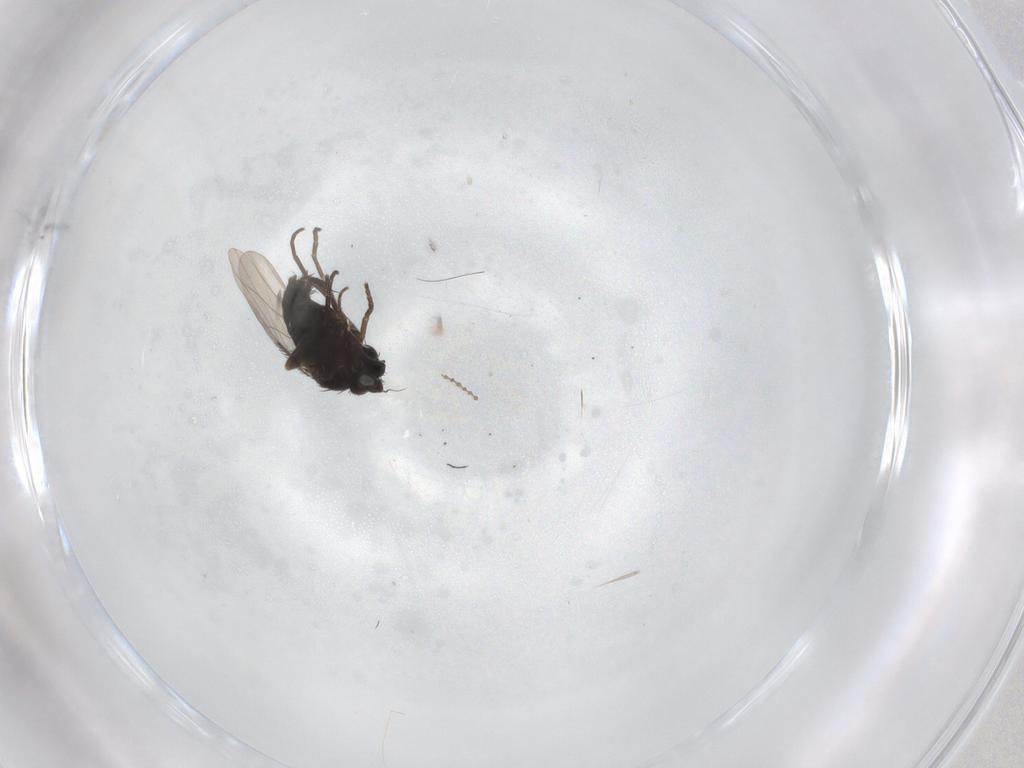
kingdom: Animalia
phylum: Arthropoda
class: Insecta
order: Diptera
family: Phoridae
